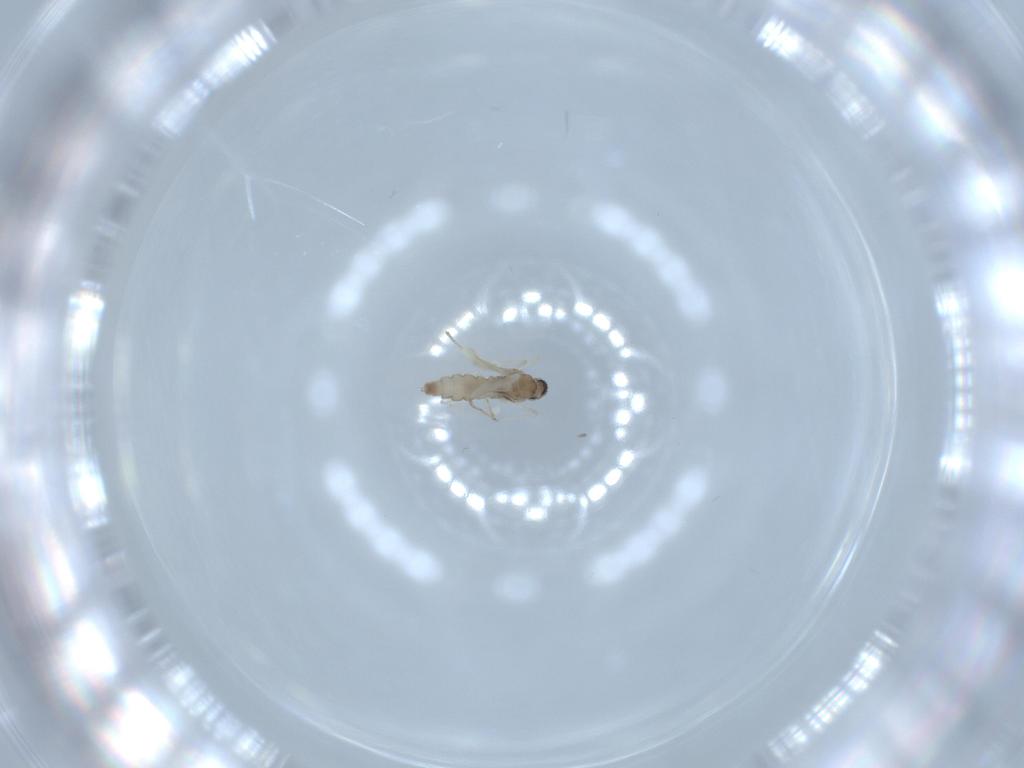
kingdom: Animalia
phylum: Arthropoda
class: Insecta
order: Diptera
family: Cecidomyiidae
